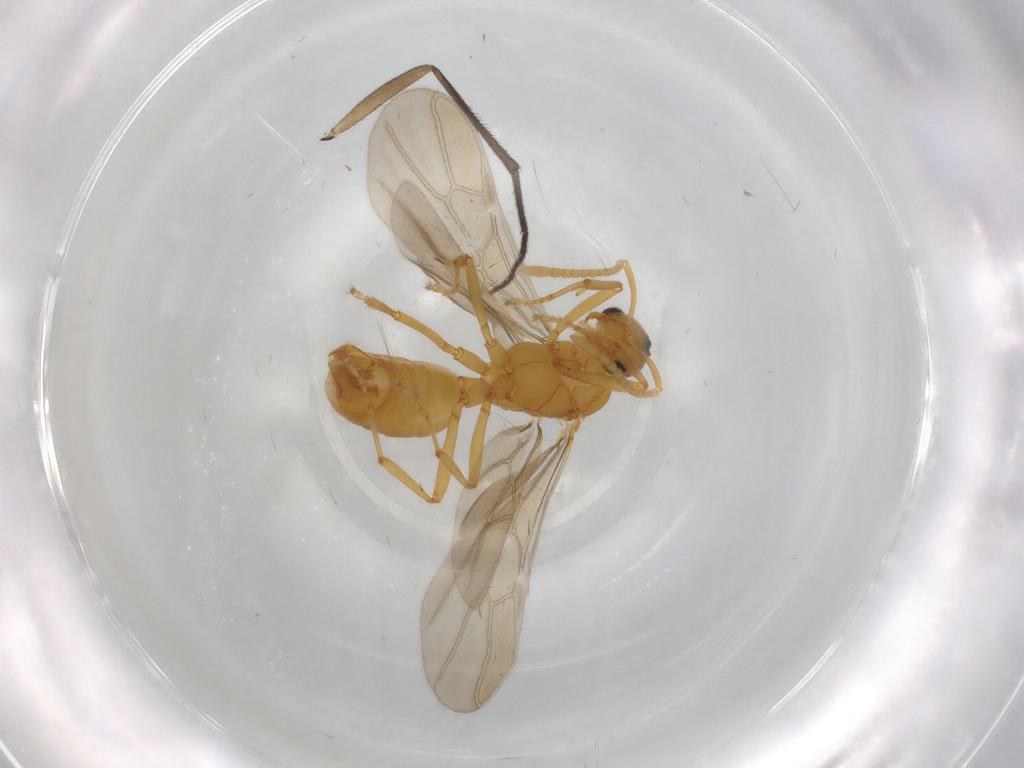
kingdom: Animalia
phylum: Arthropoda
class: Insecta
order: Hymenoptera
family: Formicidae
